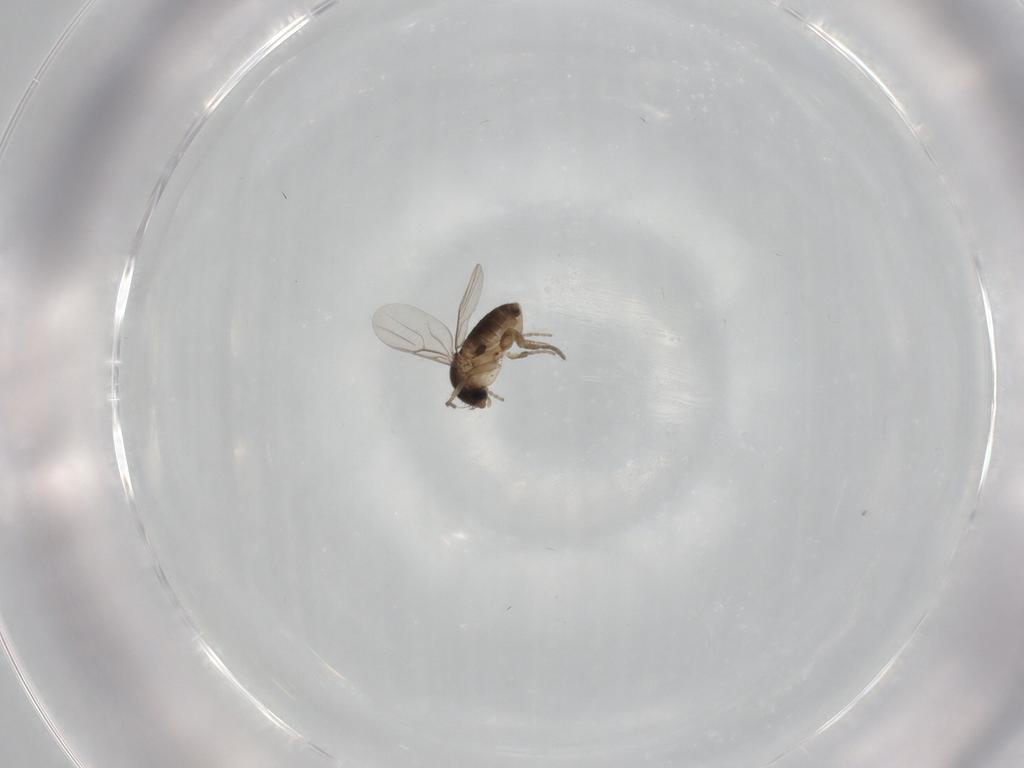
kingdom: Animalia
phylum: Arthropoda
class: Insecta
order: Diptera
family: Phoridae
